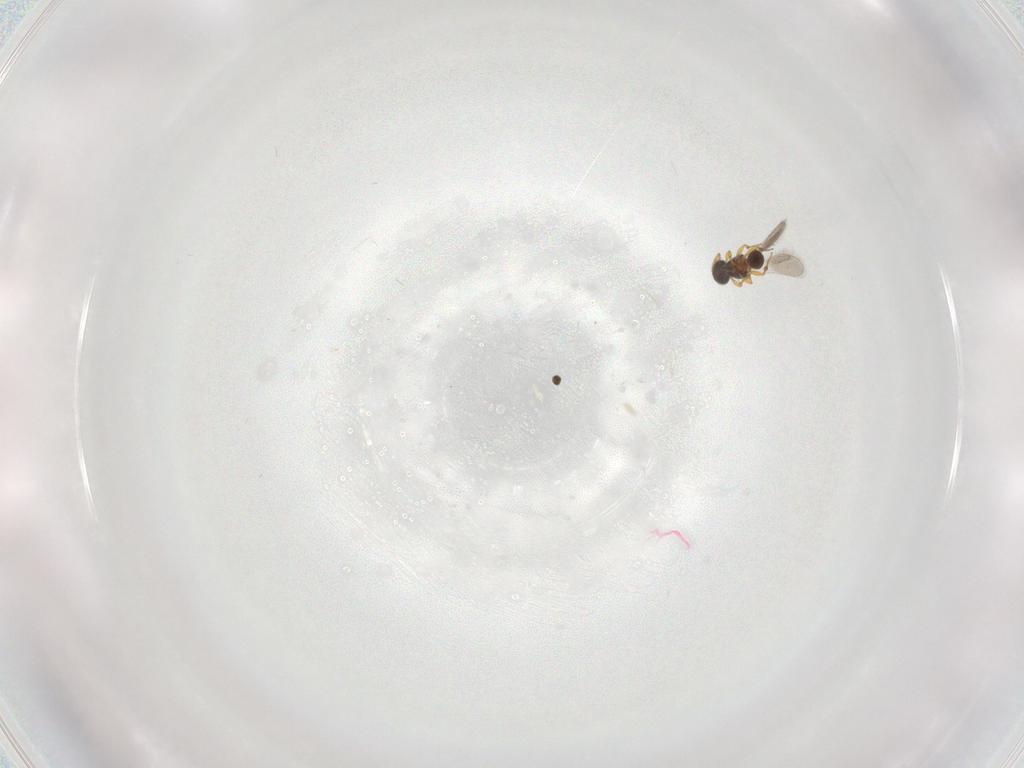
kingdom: Animalia
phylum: Arthropoda
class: Insecta
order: Hymenoptera
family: Platygastridae
